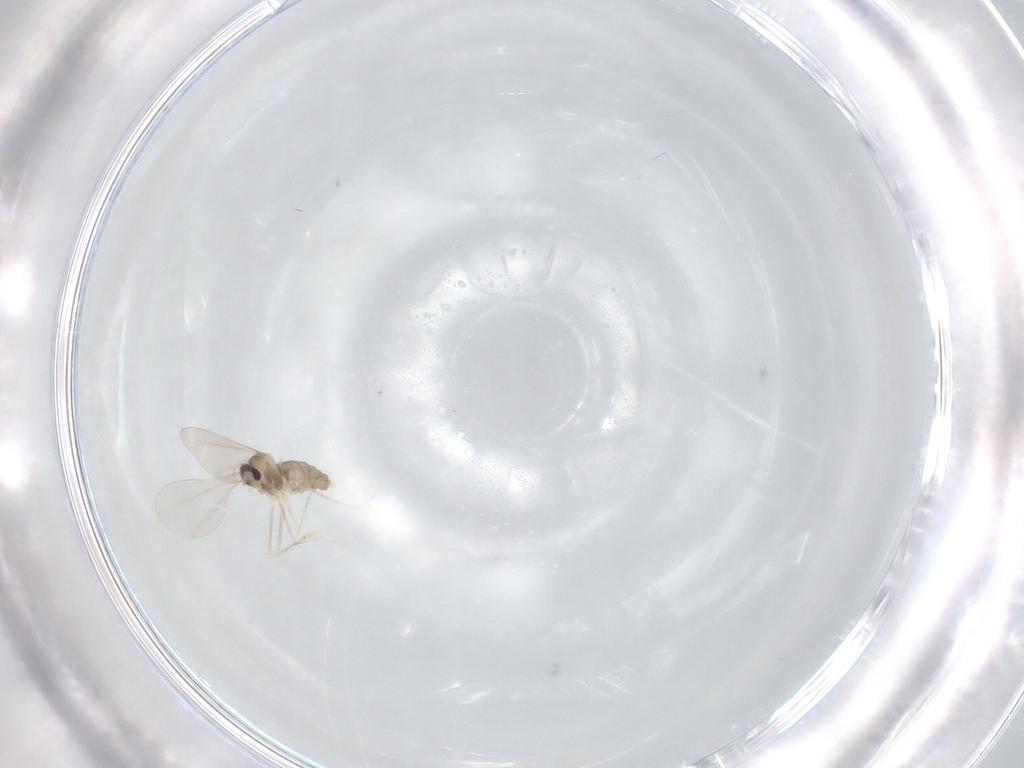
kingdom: Animalia
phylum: Arthropoda
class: Insecta
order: Diptera
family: Cecidomyiidae
